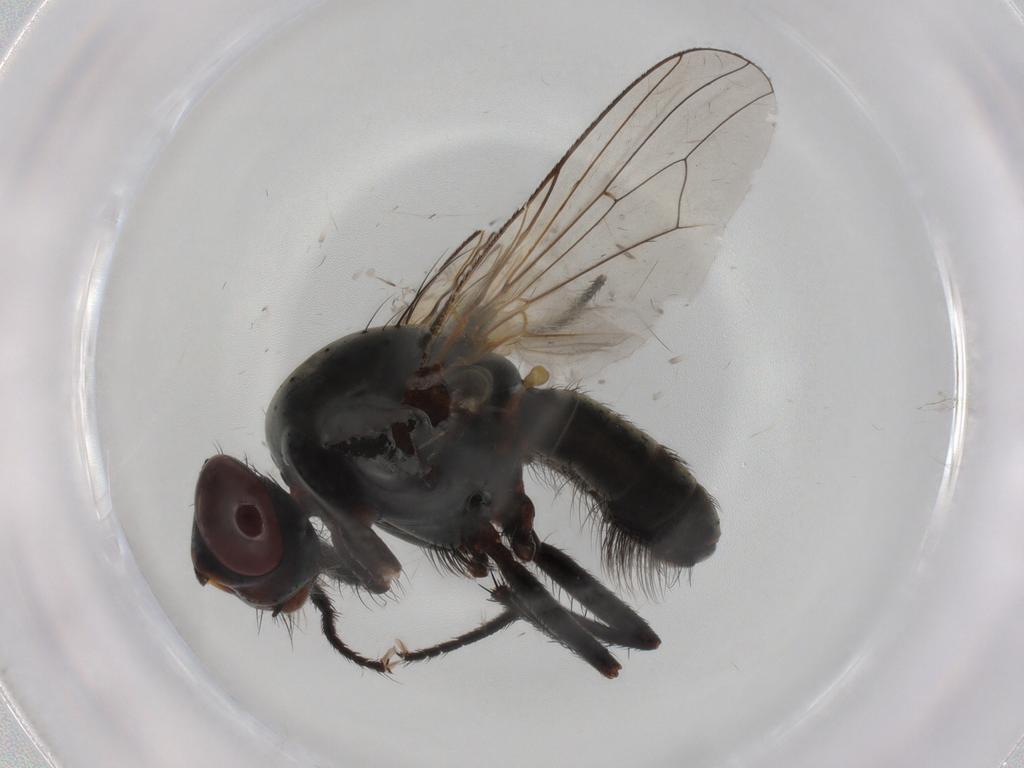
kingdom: Animalia
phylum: Arthropoda
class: Insecta
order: Diptera
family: Anthomyiidae
